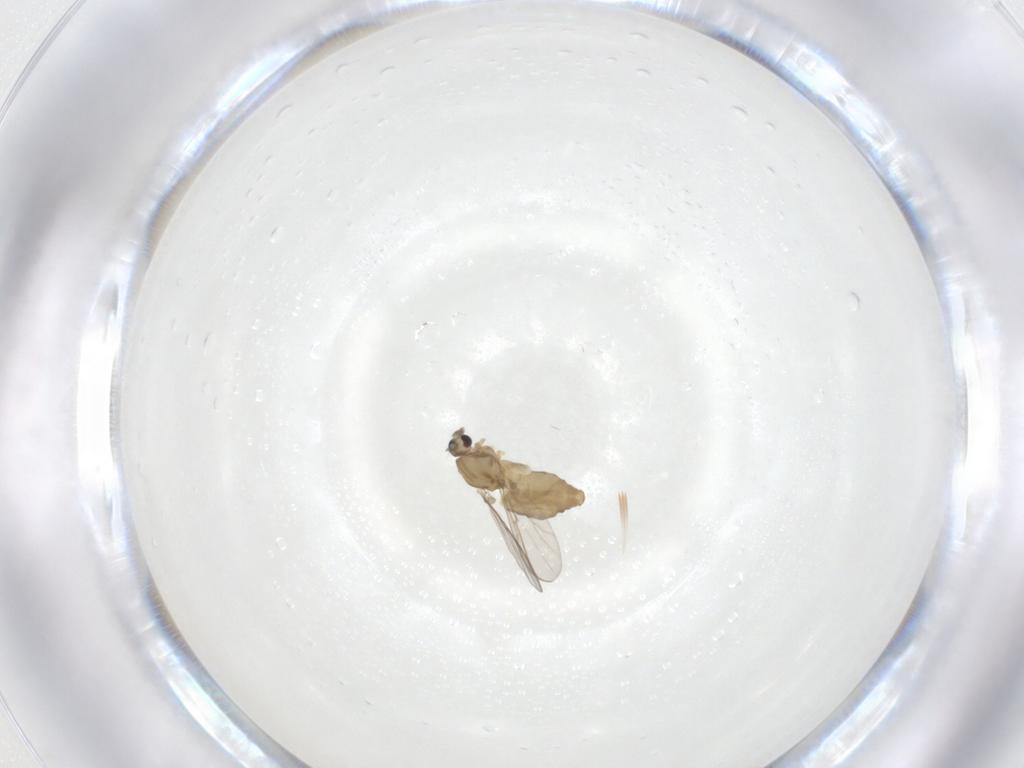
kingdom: Animalia
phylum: Arthropoda
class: Insecta
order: Diptera
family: Chironomidae
